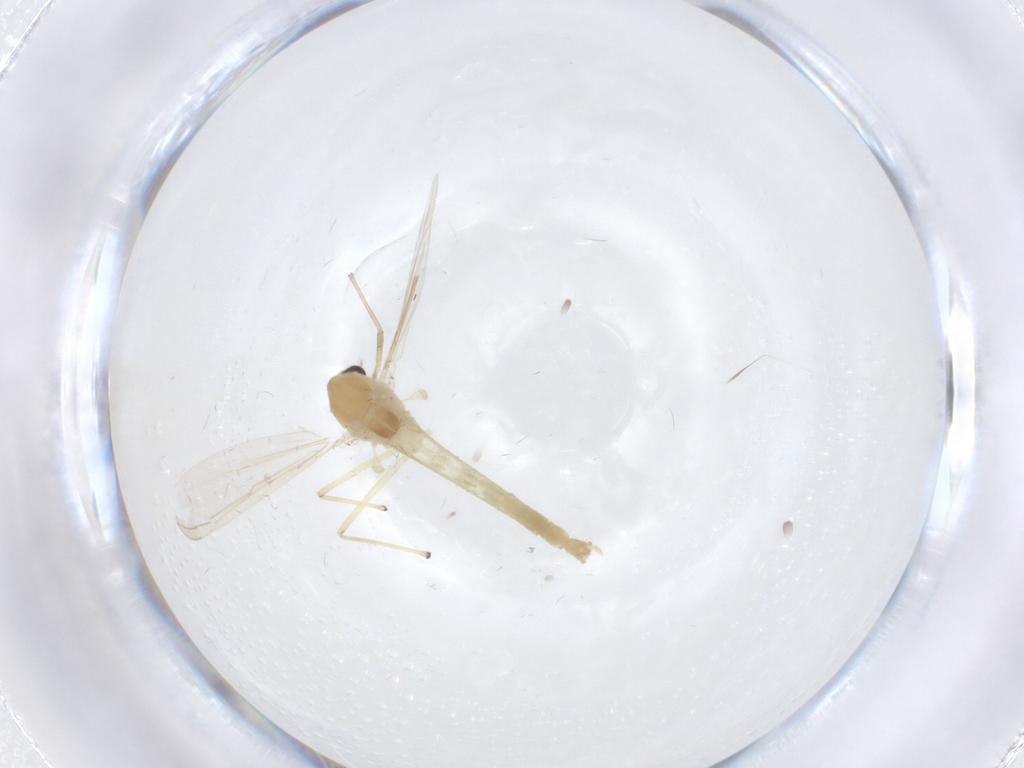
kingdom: Animalia
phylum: Arthropoda
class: Insecta
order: Diptera
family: Chironomidae
